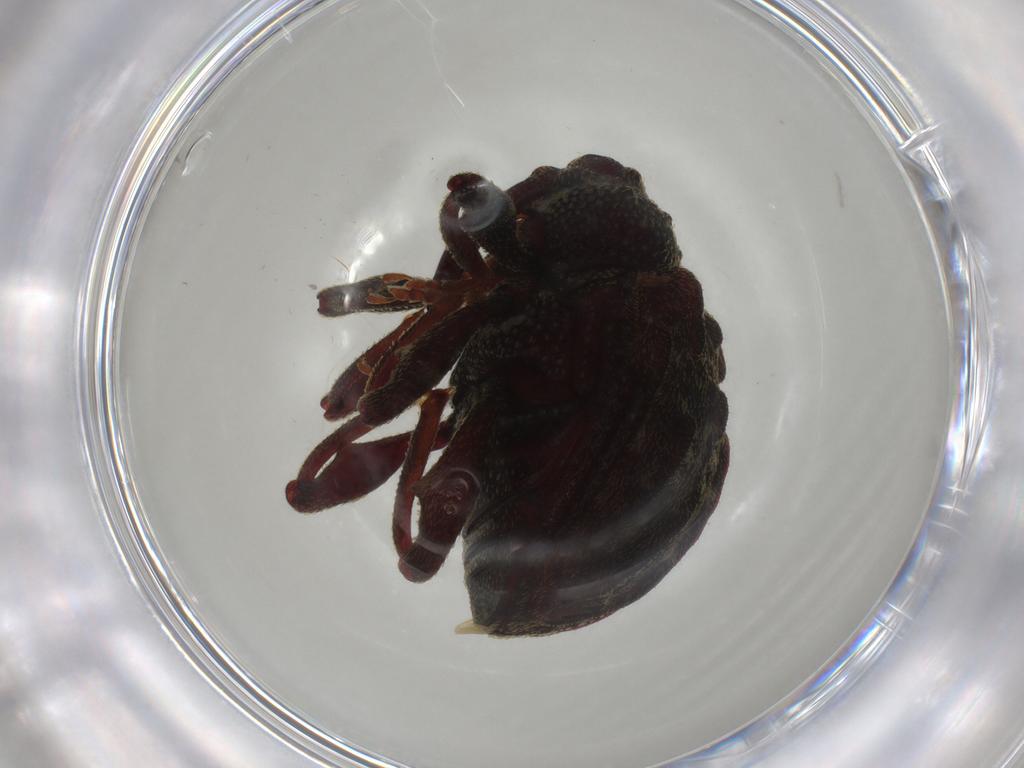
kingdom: Animalia
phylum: Arthropoda
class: Insecta
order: Coleoptera
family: Curculionidae
